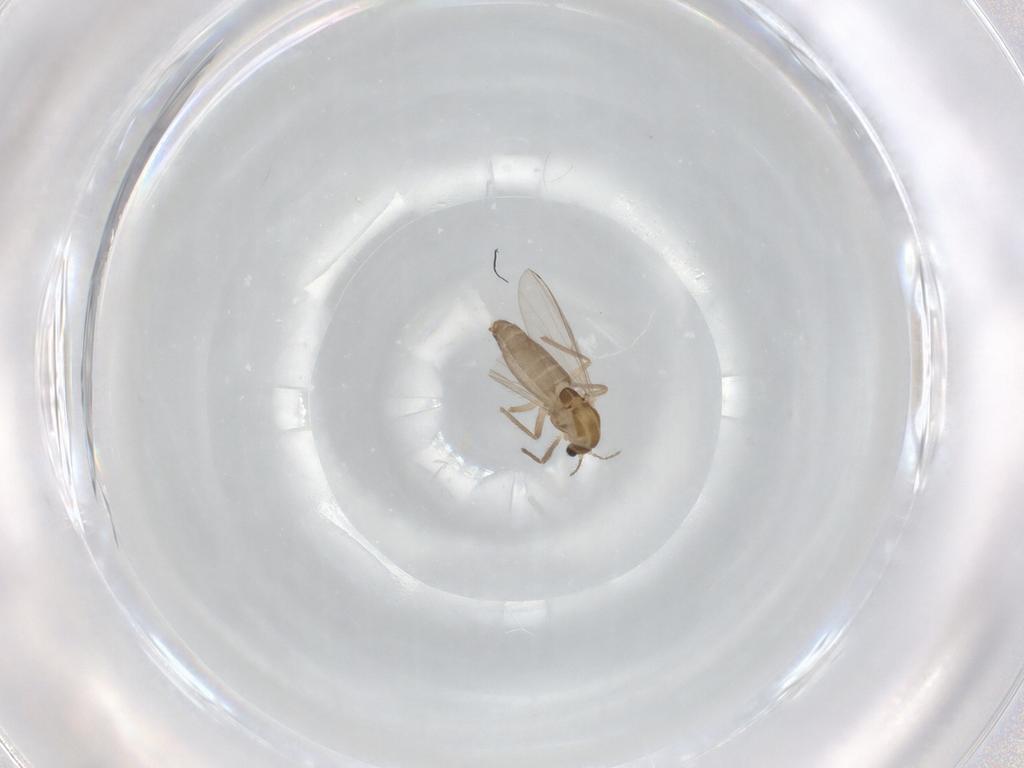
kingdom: Animalia
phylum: Arthropoda
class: Insecta
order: Diptera
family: Chironomidae
